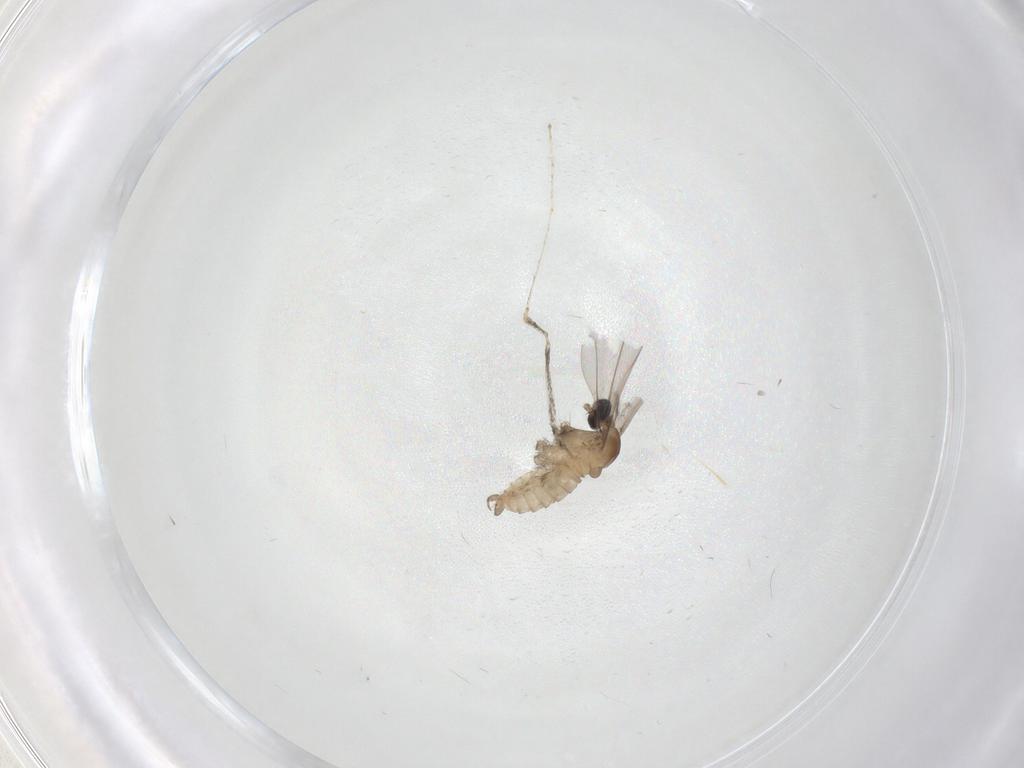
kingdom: Animalia
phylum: Arthropoda
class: Insecta
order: Diptera
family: Cecidomyiidae
